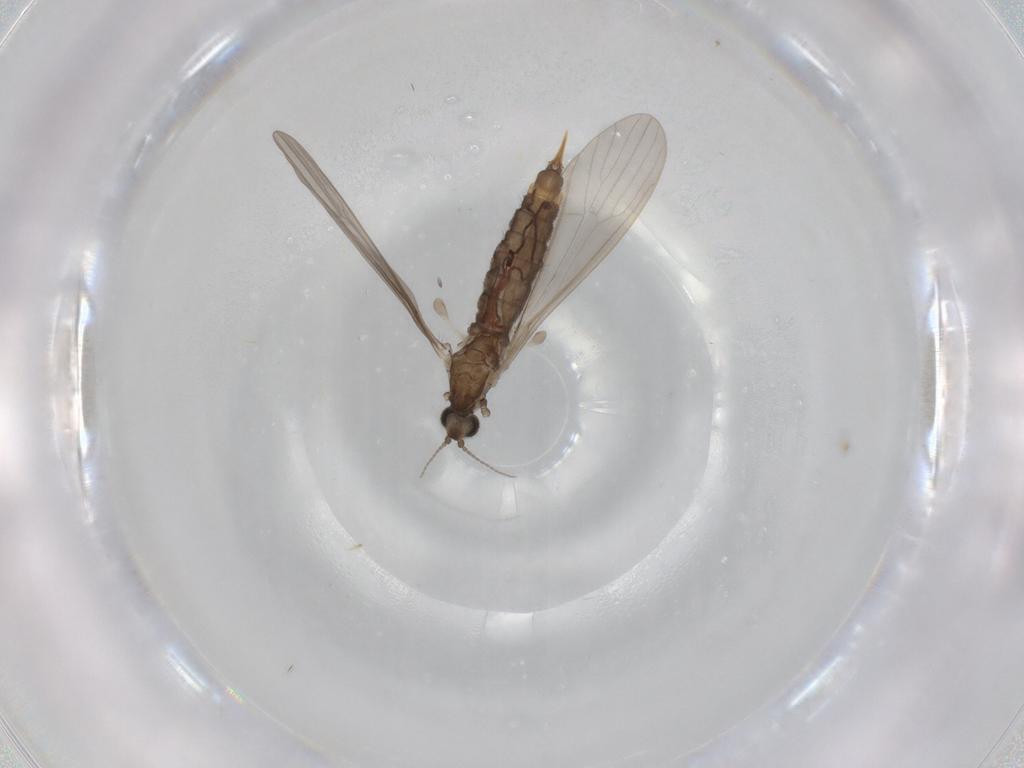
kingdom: Animalia
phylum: Arthropoda
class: Insecta
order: Diptera
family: Limoniidae
